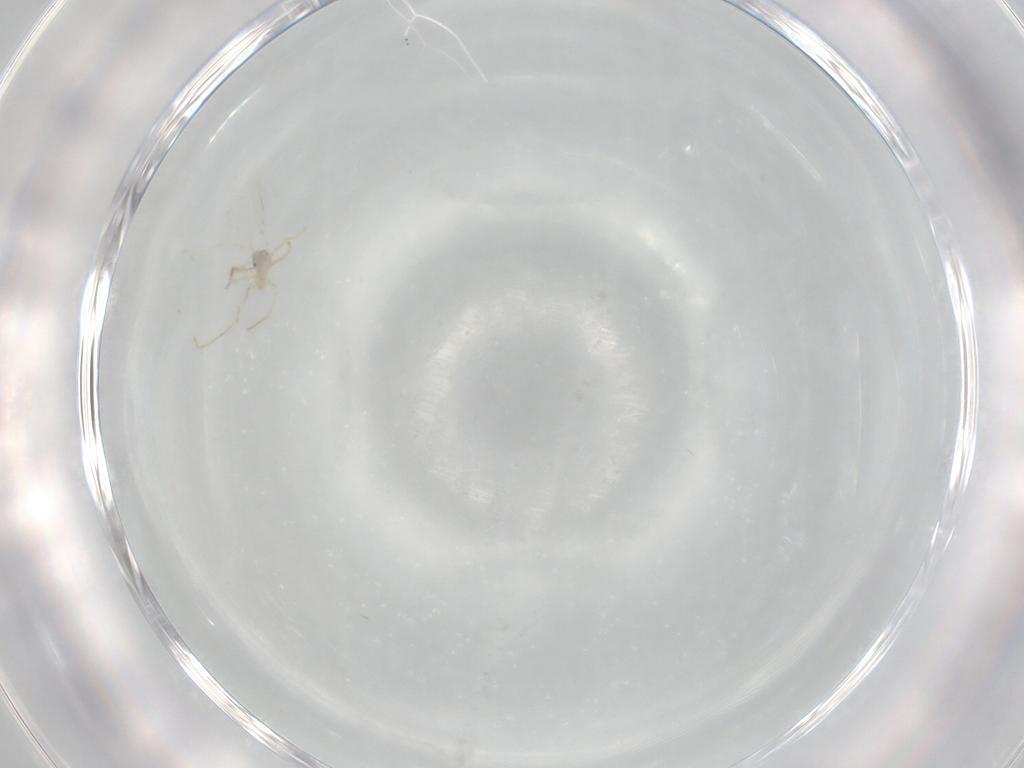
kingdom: Animalia
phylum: Arthropoda
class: Insecta
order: Diptera
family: Cecidomyiidae
